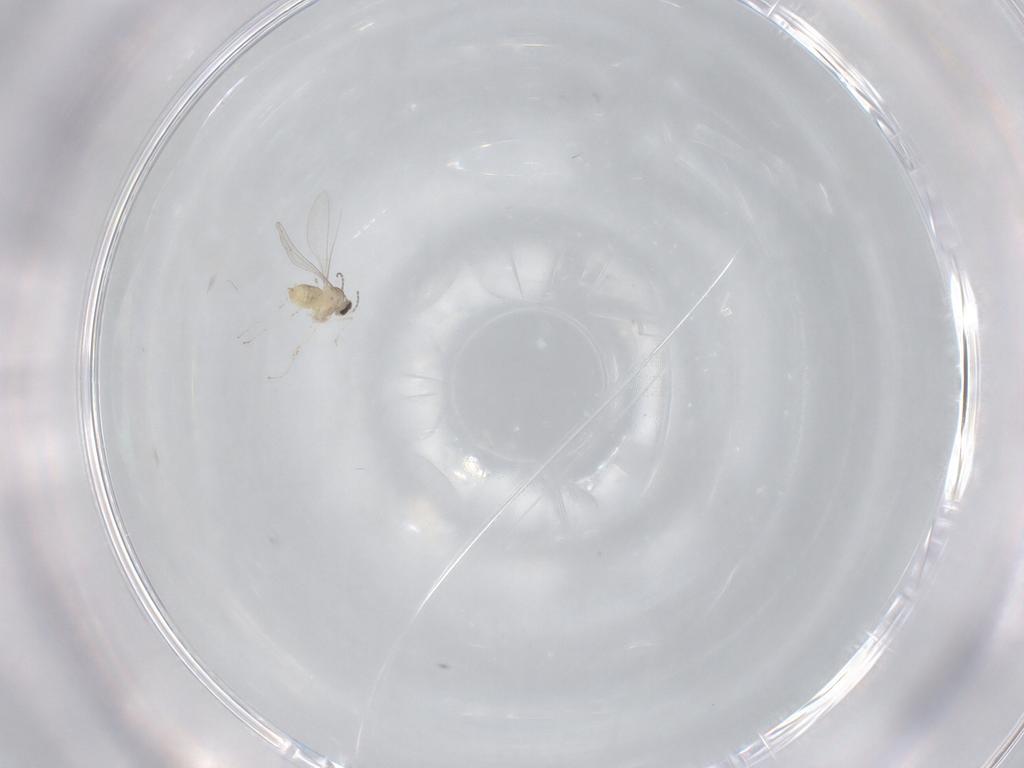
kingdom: Animalia
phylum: Arthropoda
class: Insecta
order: Diptera
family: Cecidomyiidae
